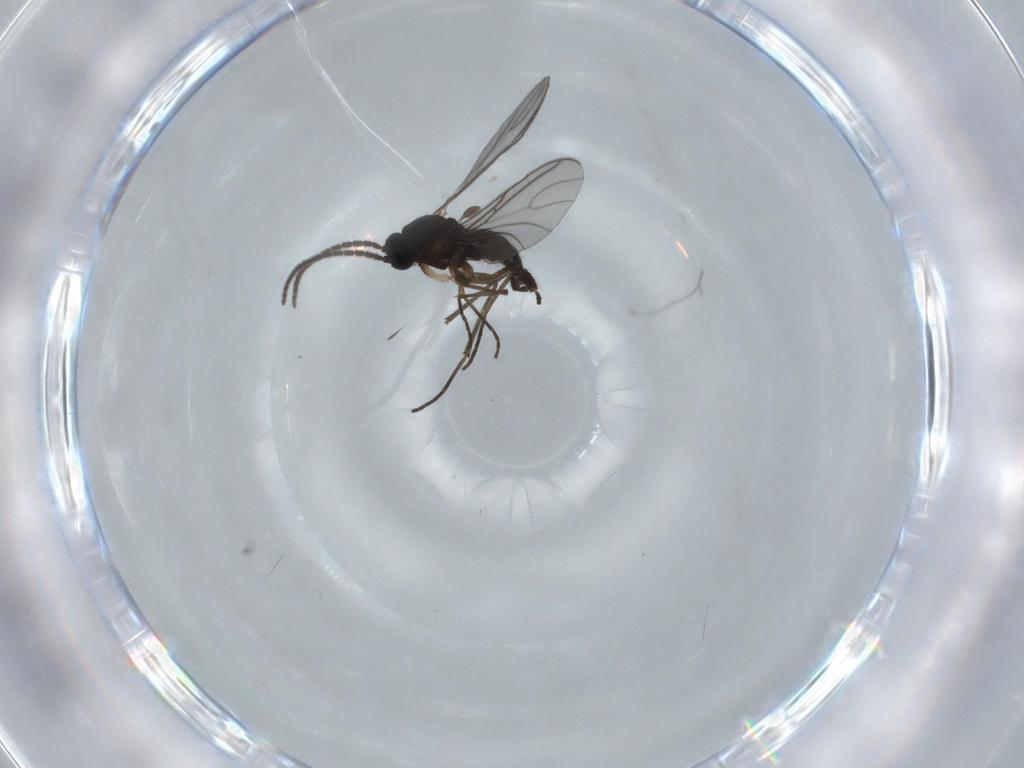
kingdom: Animalia
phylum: Arthropoda
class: Insecta
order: Diptera
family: Sciaridae
